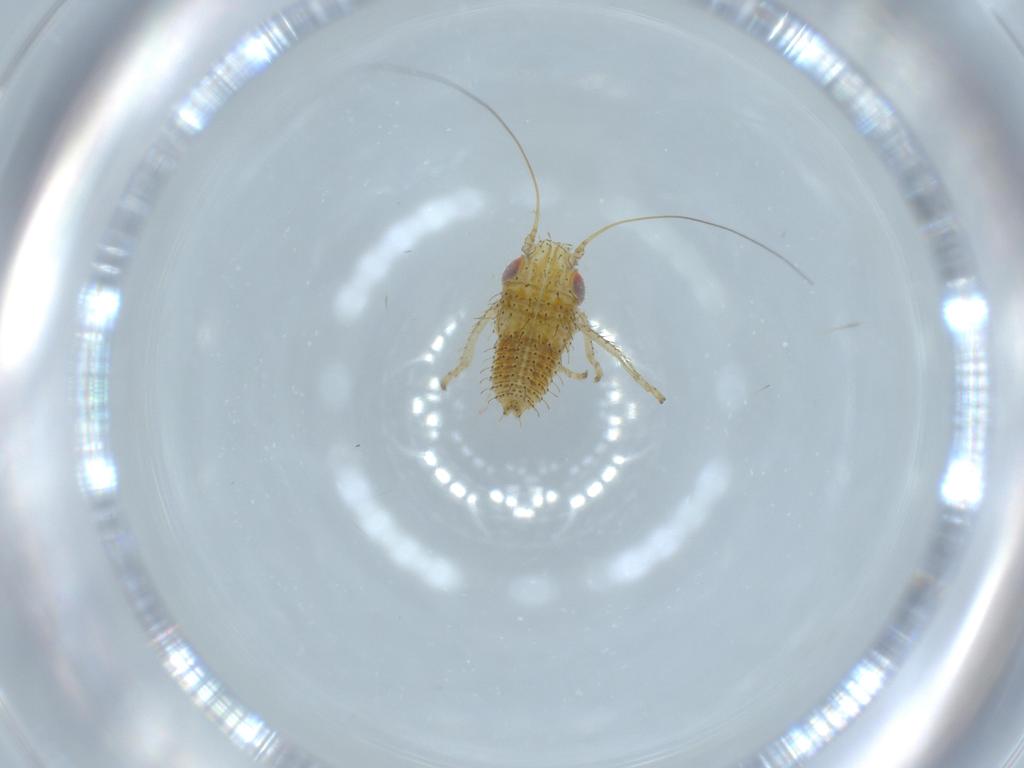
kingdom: Animalia
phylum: Arthropoda
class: Insecta
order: Hemiptera
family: Cicadellidae
